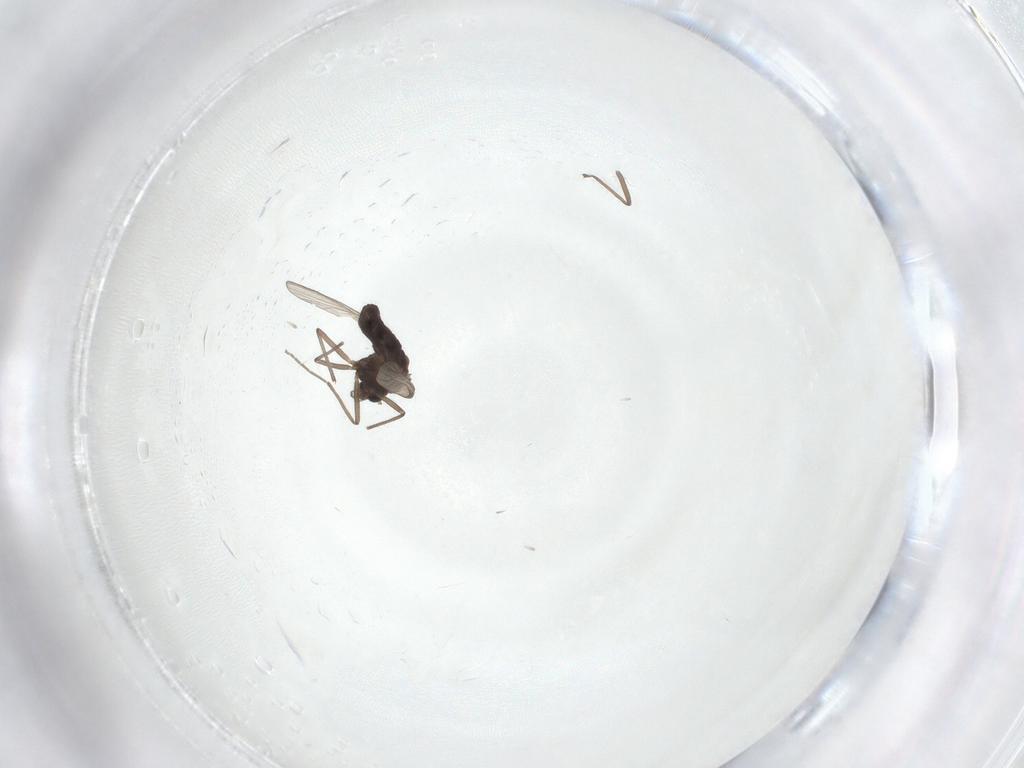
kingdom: Animalia
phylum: Arthropoda
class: Insecta
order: Diptera
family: Chironomidae
